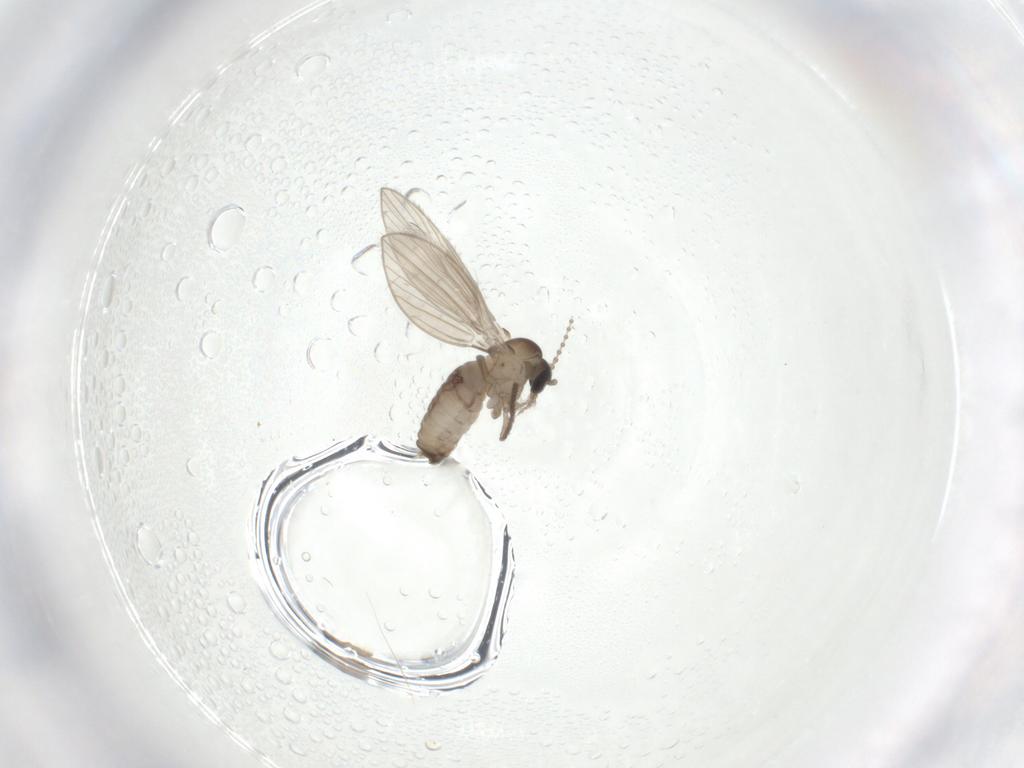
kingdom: Animalia
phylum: Arthropoda
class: Insecta
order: Diptera
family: Psychodidae
